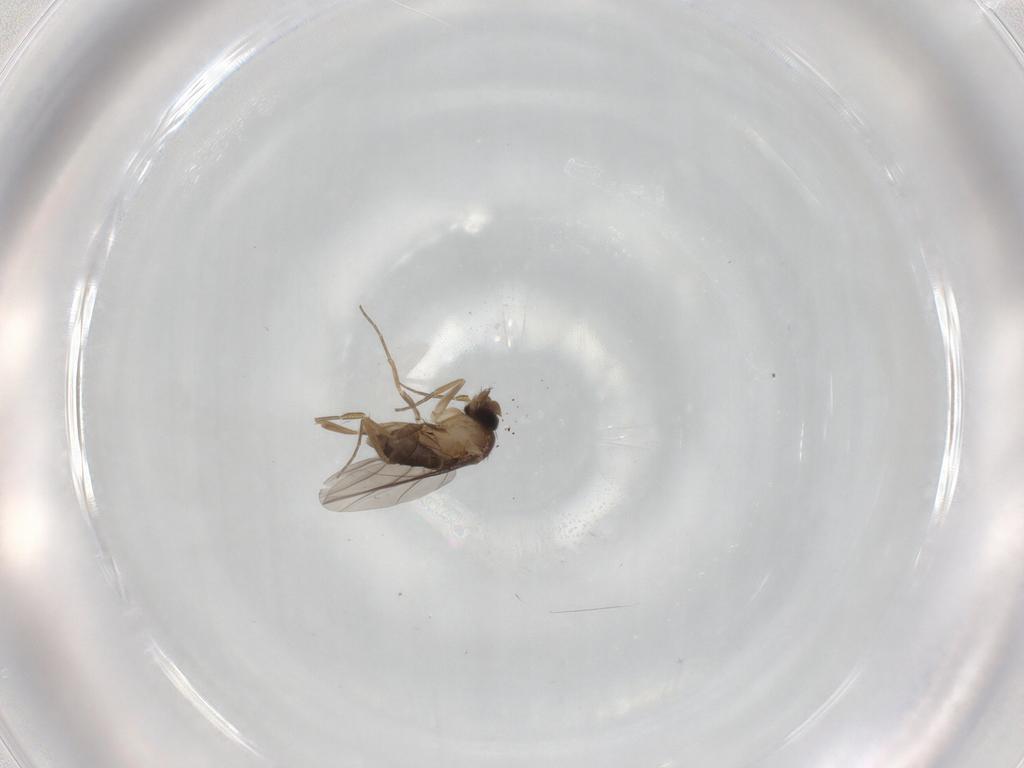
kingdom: Animalia
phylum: Arthropoda
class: Insecta
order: Diptera
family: Phoridae
